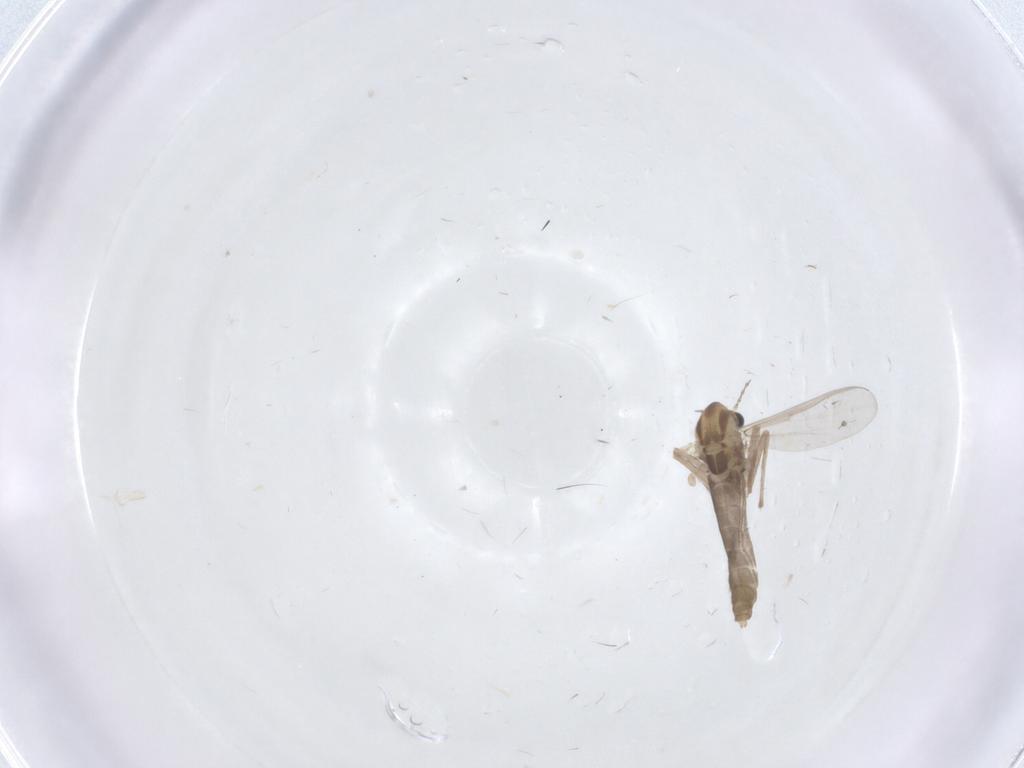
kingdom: Animalia
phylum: Arthropoda
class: Insecta
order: Diptera
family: Chironomidae
